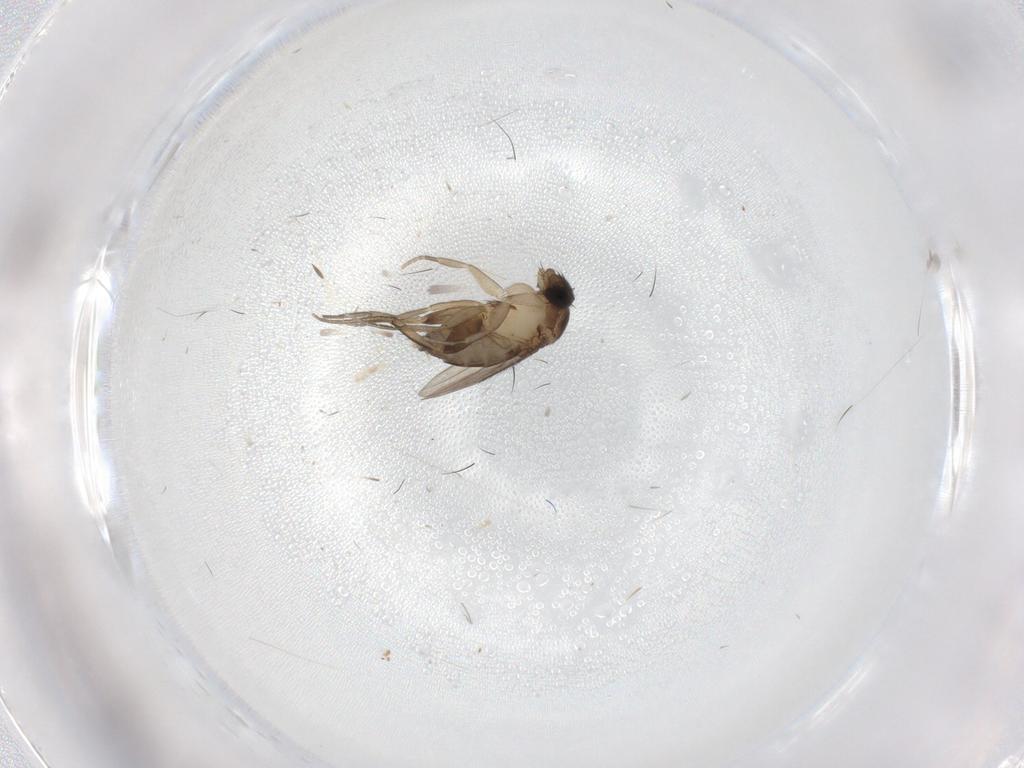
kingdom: Animalia
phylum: Arthropoda
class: Insecta
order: Diptera
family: Phoridae
